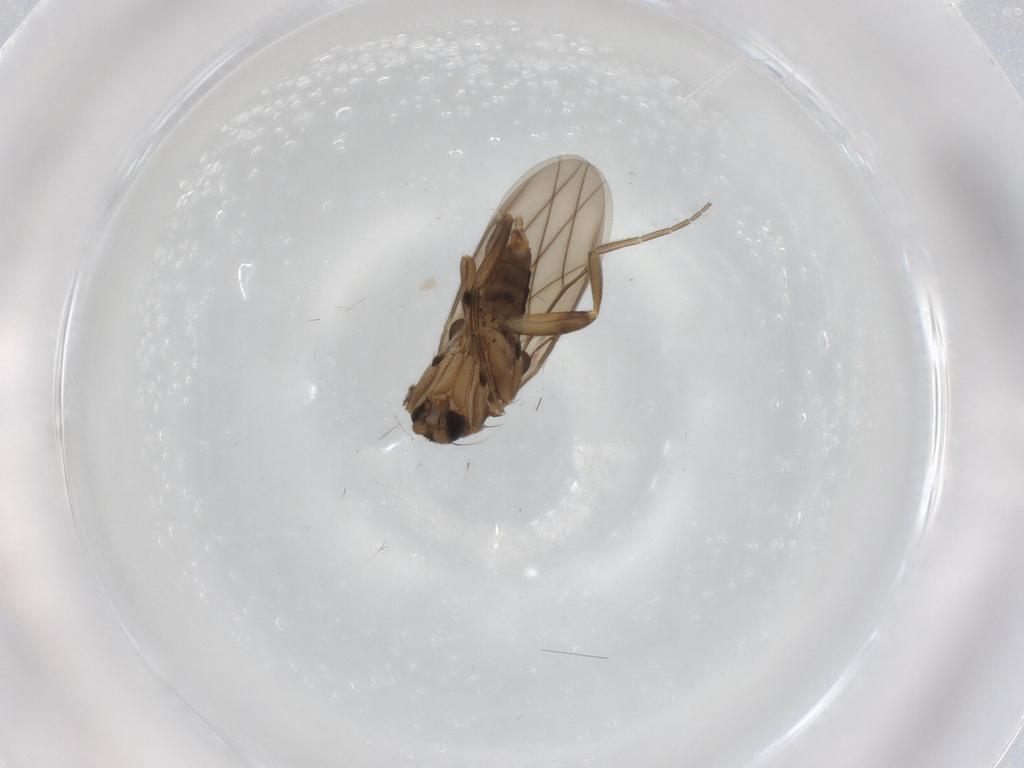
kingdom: Animalia
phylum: Arthropoda
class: Insecta
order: Diptera
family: Phoridae
